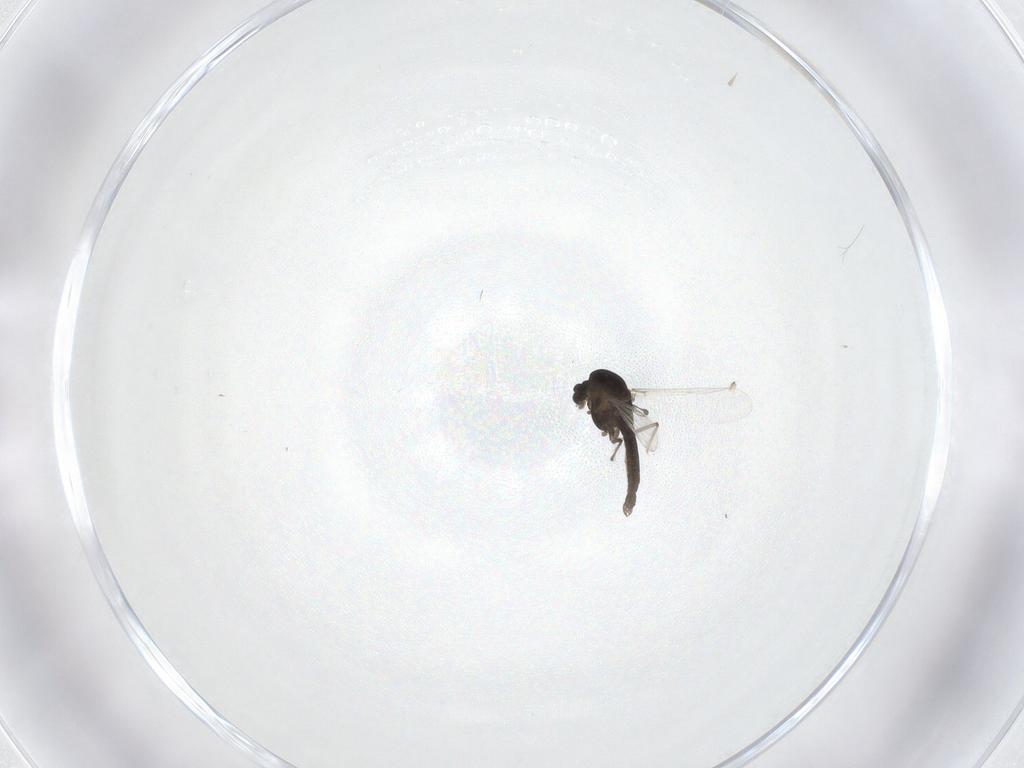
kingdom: Animalia
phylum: Arthropoda
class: Insecta
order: Diptera
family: Chironomidae
